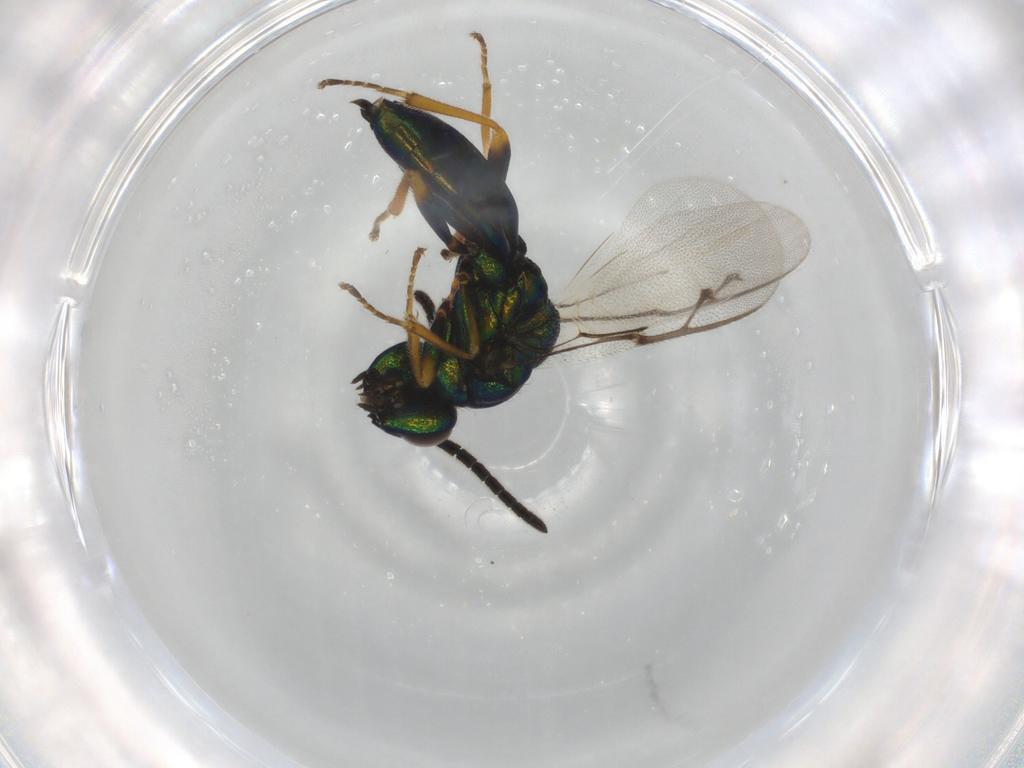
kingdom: Animalia
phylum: Arthropoda
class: Insecta
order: Hymenoptera
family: Pteromalidae
